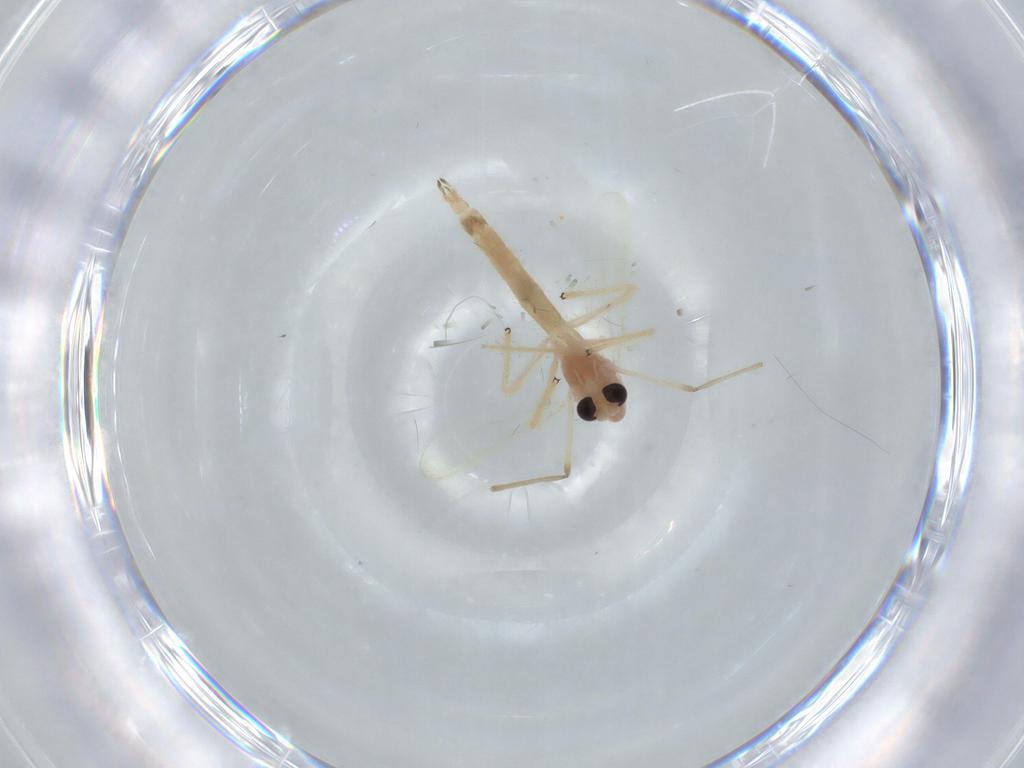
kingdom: Animalia
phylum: Arthropoda
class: Insecta
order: Diptera
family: Chironomidae
